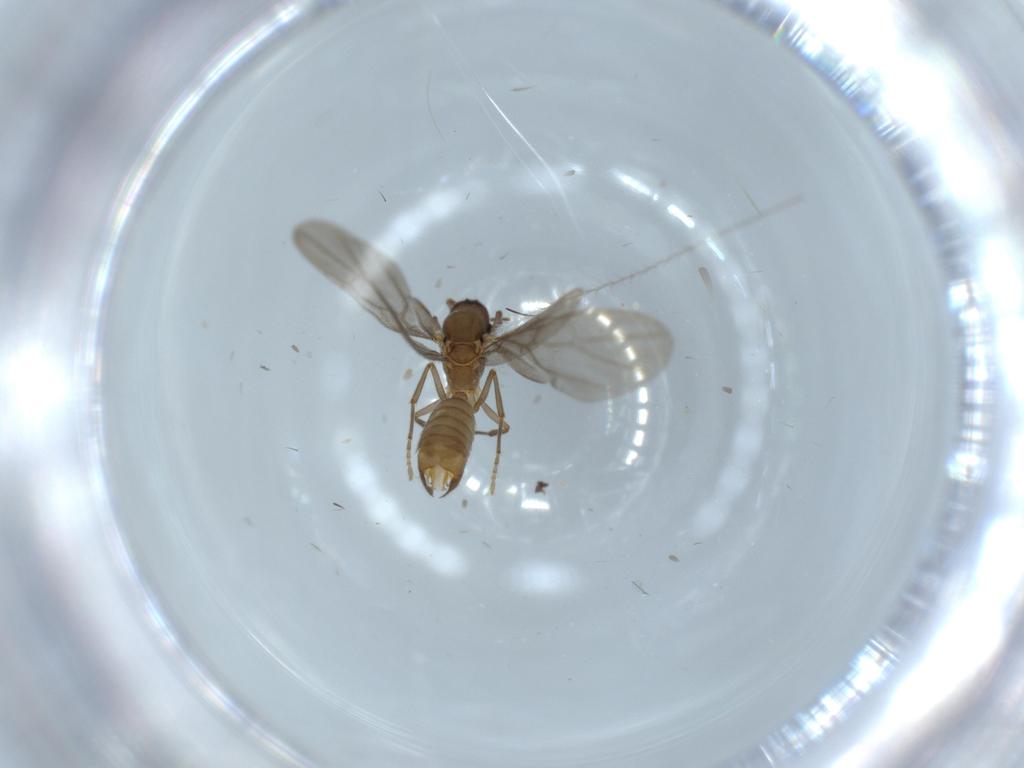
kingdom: Animalia
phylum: Arthropoda
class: Insecta
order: Hymenoptera
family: Formicidae
